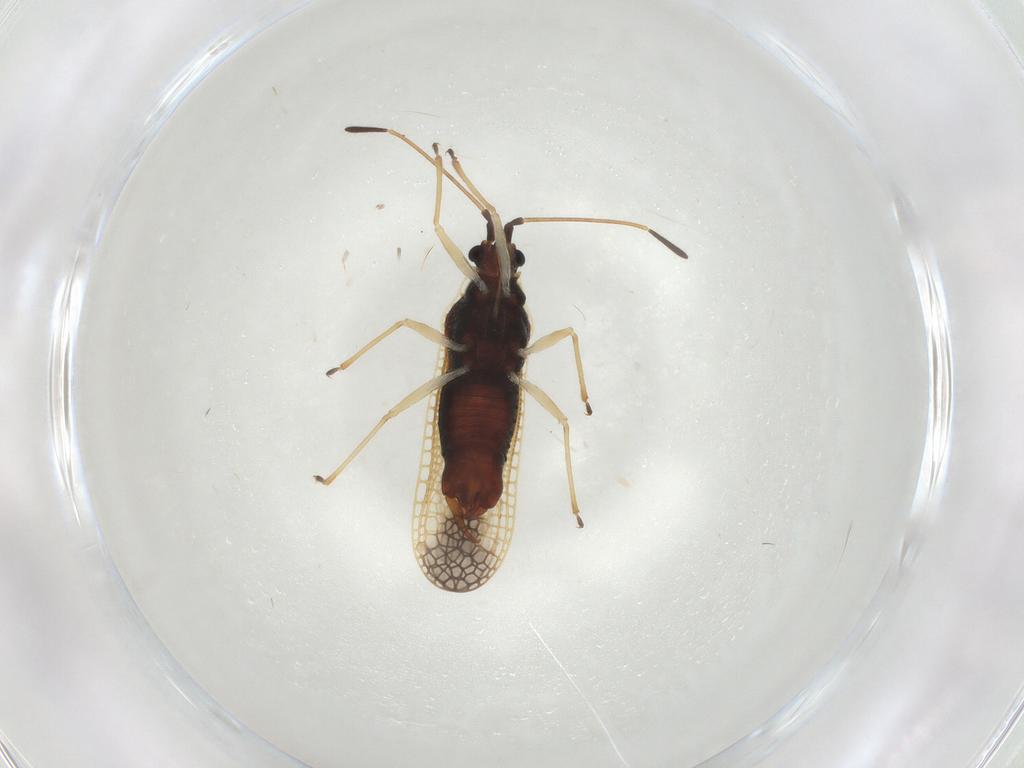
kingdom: Animalia
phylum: Arthropoda
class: Insecta
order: Hemiptera
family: Tingidae
